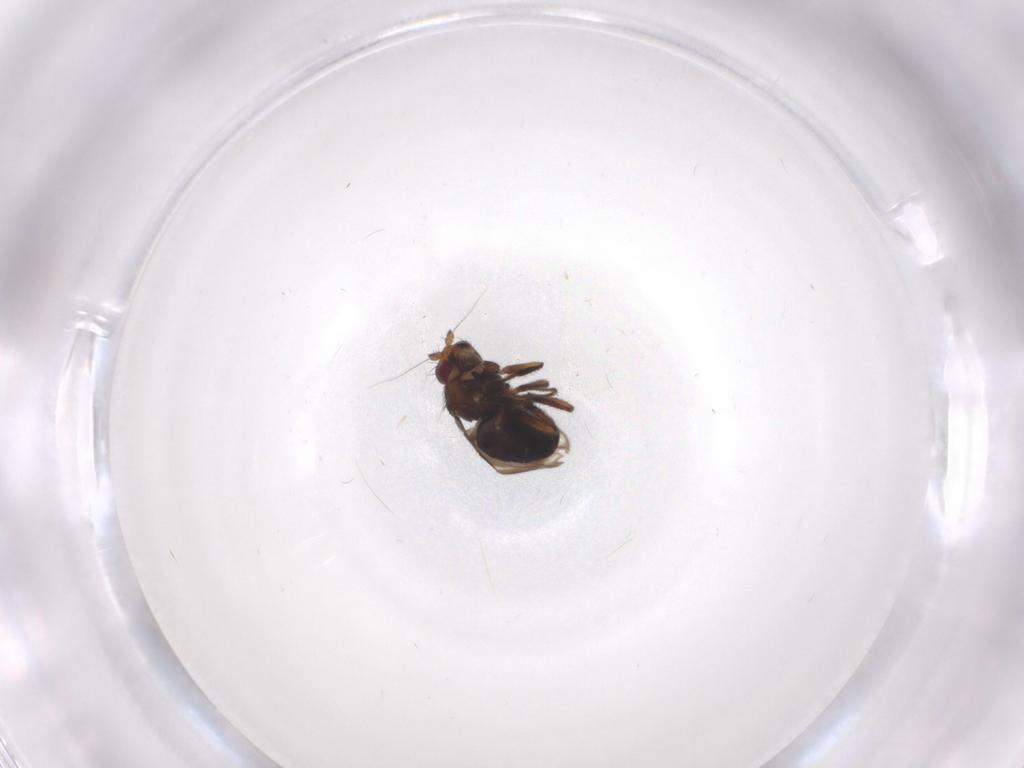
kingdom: Animalia
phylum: Arthropoda
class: Insecta
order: Diptera
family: Sphaeroceridae
